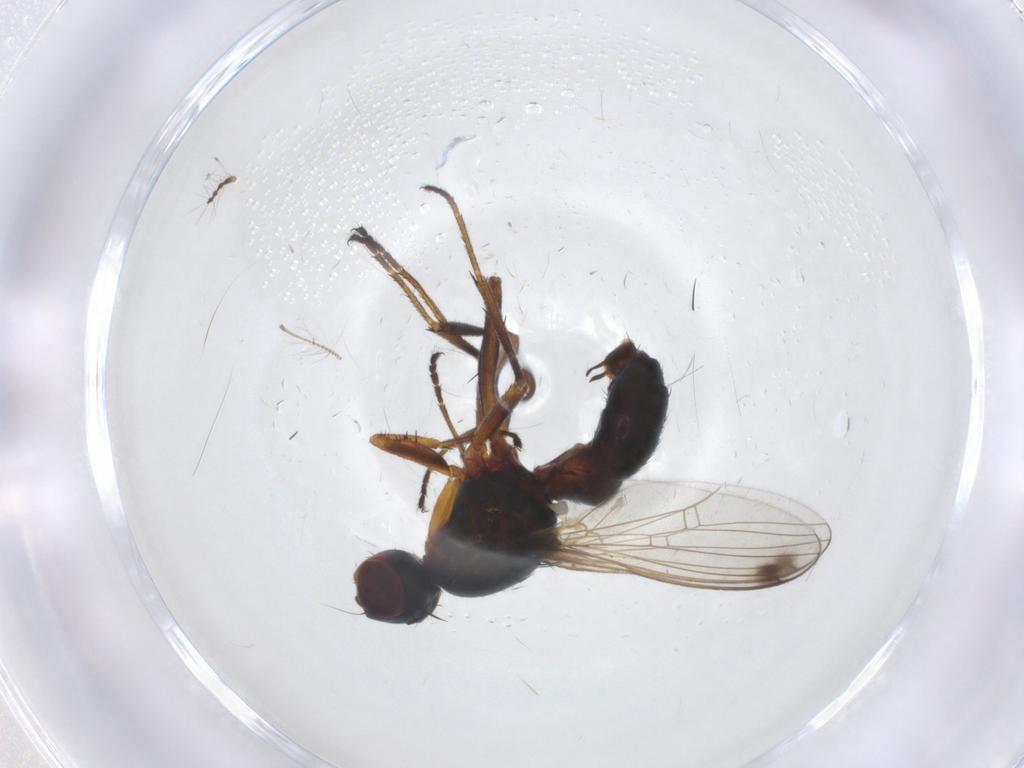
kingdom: Animalia
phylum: Arthropoda
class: Insecta
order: Diptera
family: Sepsidae
